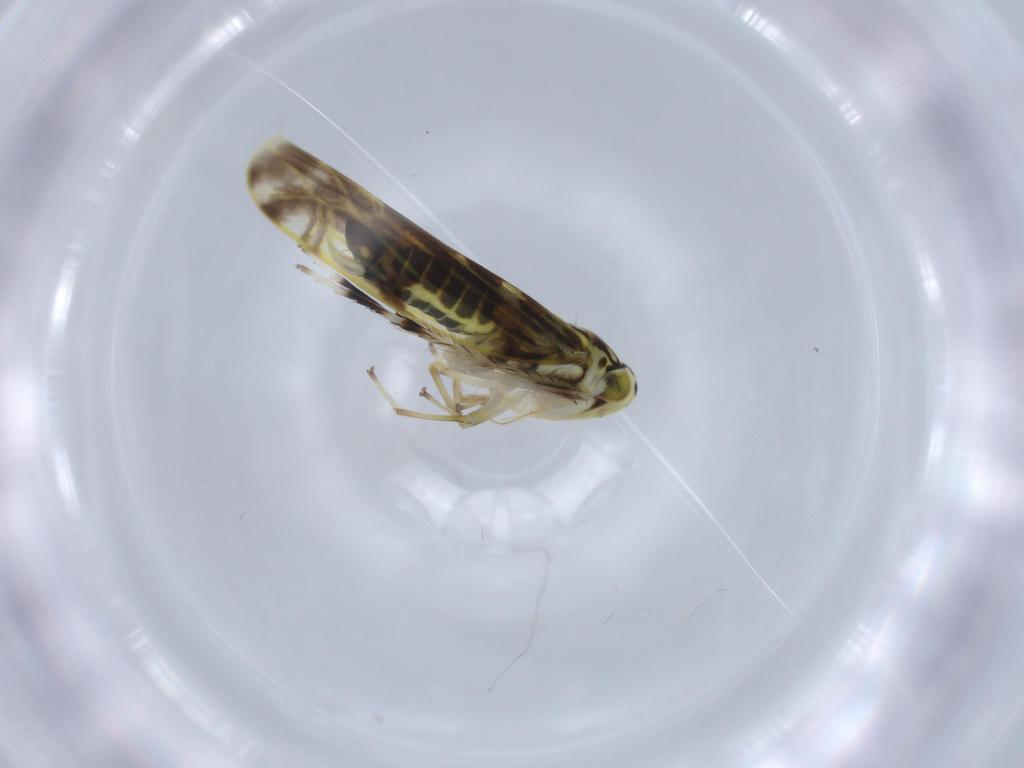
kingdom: Animalia
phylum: Arthropoda
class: Insecta
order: Hemiptera
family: Cicadellidae
